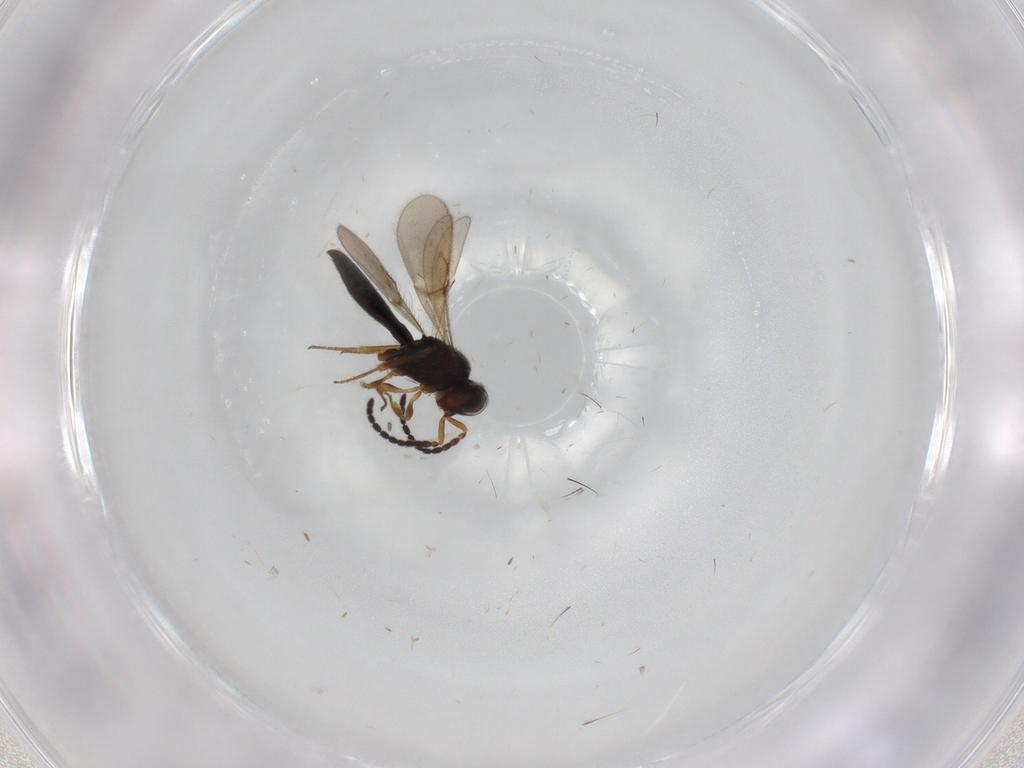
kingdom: Animalia
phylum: Arthropoda
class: Insecta
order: Hymenoptera
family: Scelionidae
